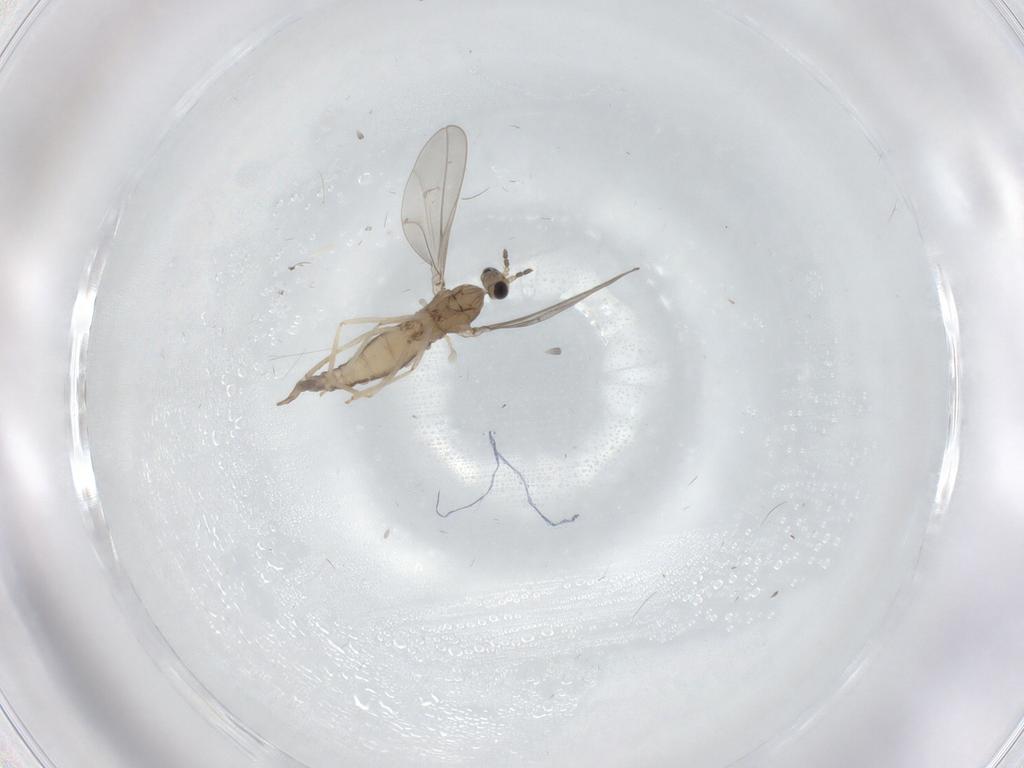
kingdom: Animalia
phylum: Arthropoda
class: Insecta
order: Diptera
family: Cecidomyiidae
